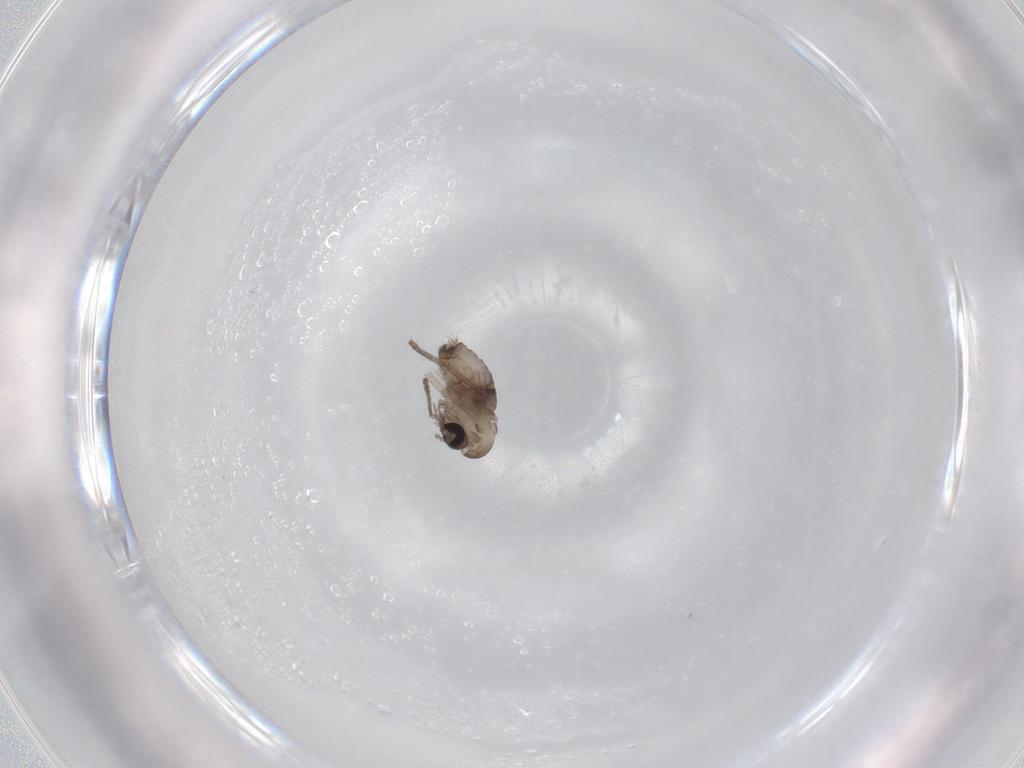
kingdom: Animalia
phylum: Arthropoda
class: Insecta
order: Diptera
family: Psychodidae
